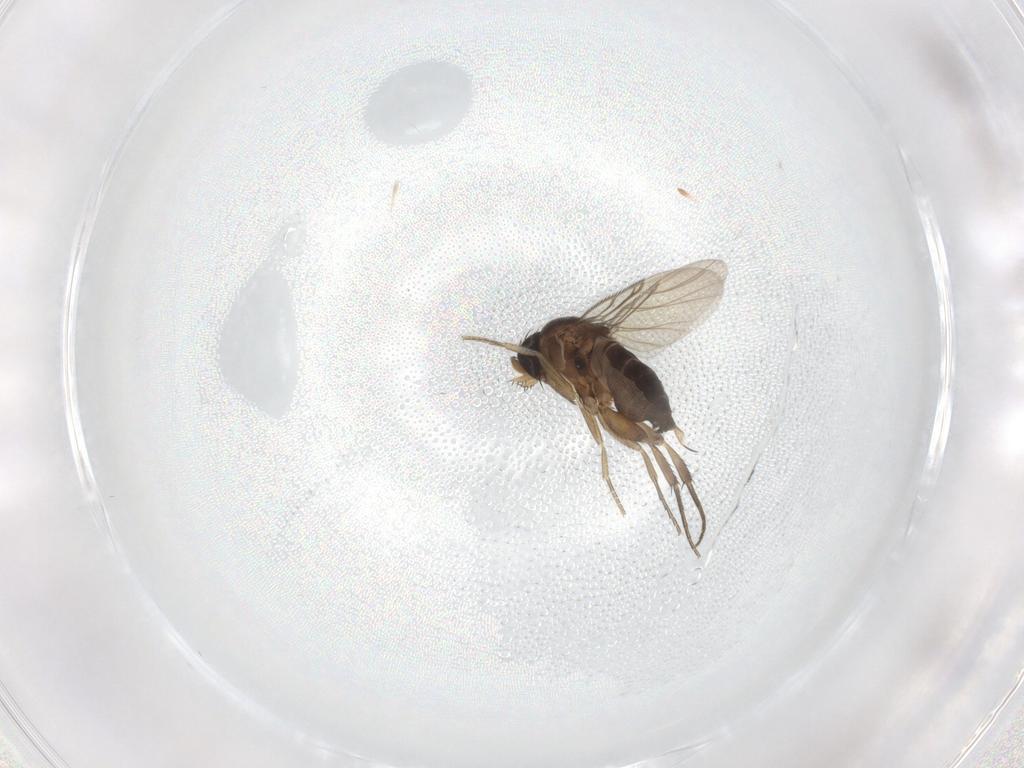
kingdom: Animalia
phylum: Arthropoda
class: Insecta
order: Diptera
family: Phoridae
